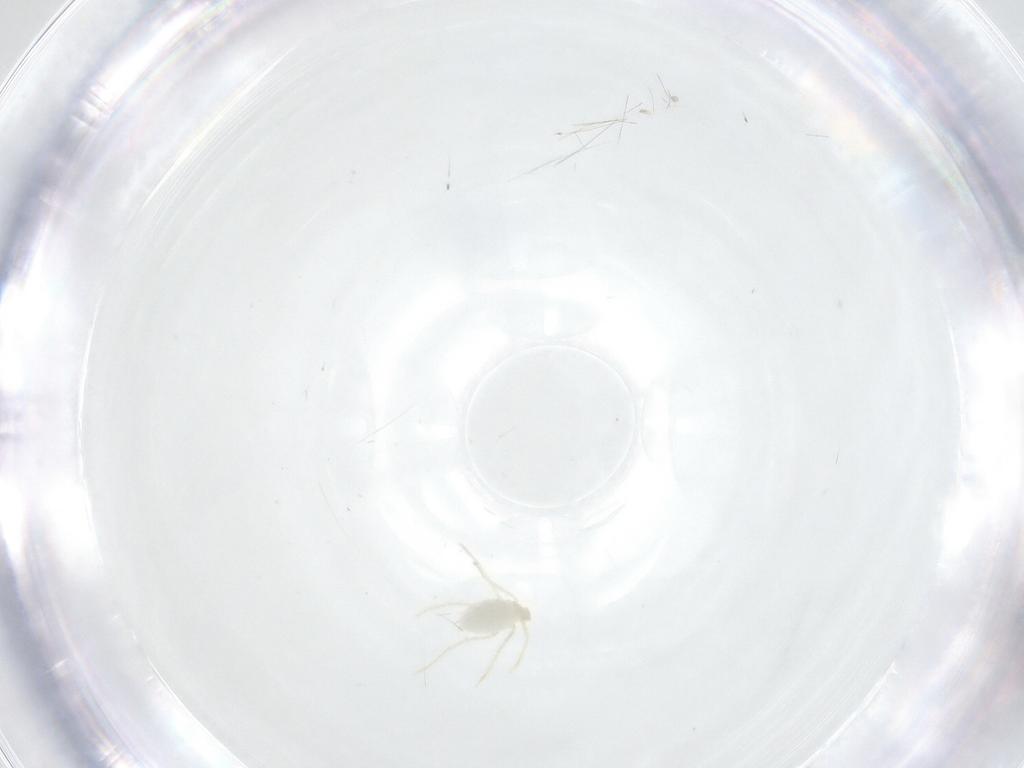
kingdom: Animalia
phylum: Arthropoda
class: Arachnida
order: Trombidiformes
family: Erythraeidae
